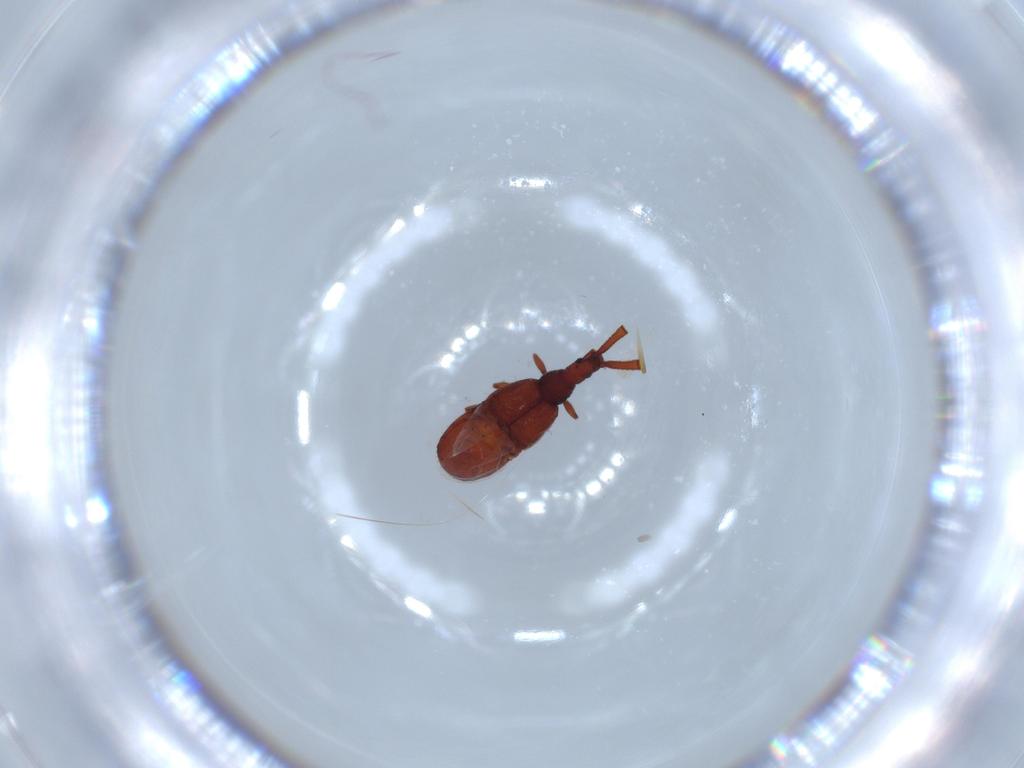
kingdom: Animalia
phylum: Arthropoda
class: Insecta
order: Coleoptera
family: Staphylinidae
